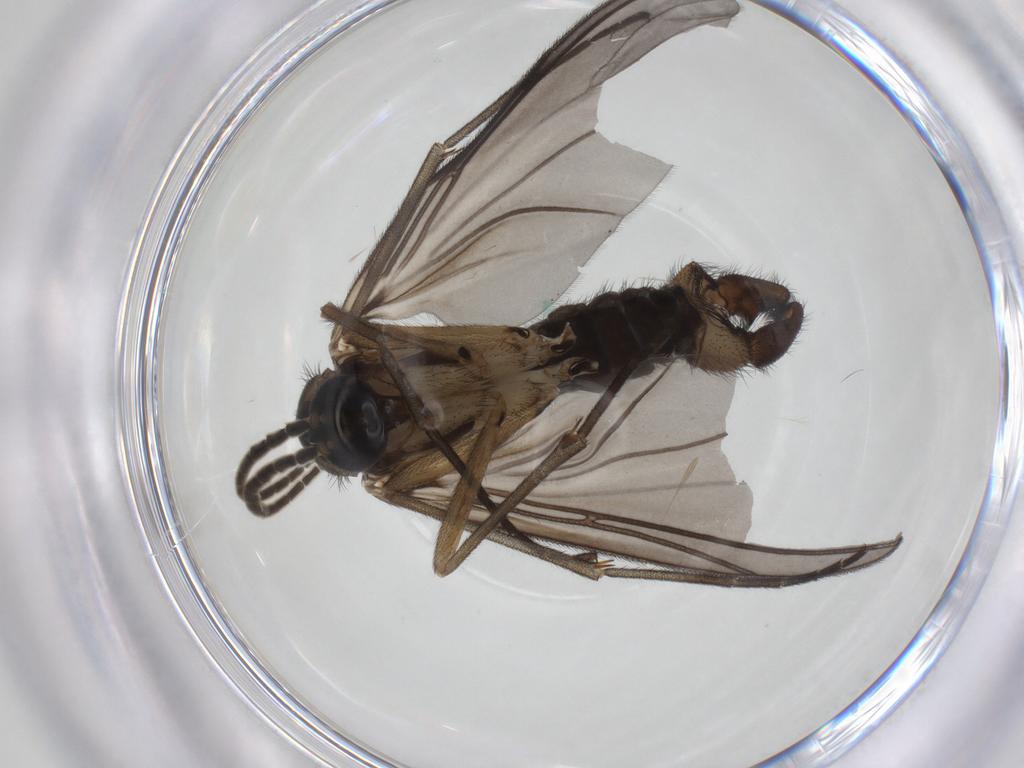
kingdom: Animalia
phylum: Arthropoda
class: Insecta
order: Diptera
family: Sciaridae
